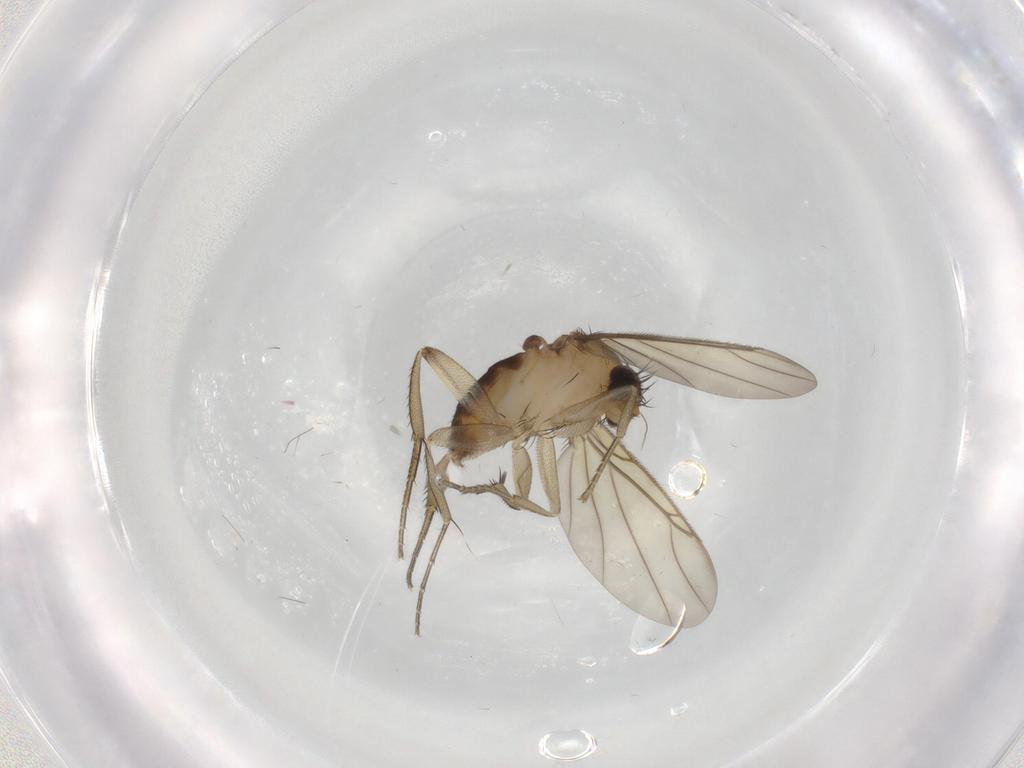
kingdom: Animalia
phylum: Arthropoda
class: Insecta
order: Diptera
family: Phoridae
